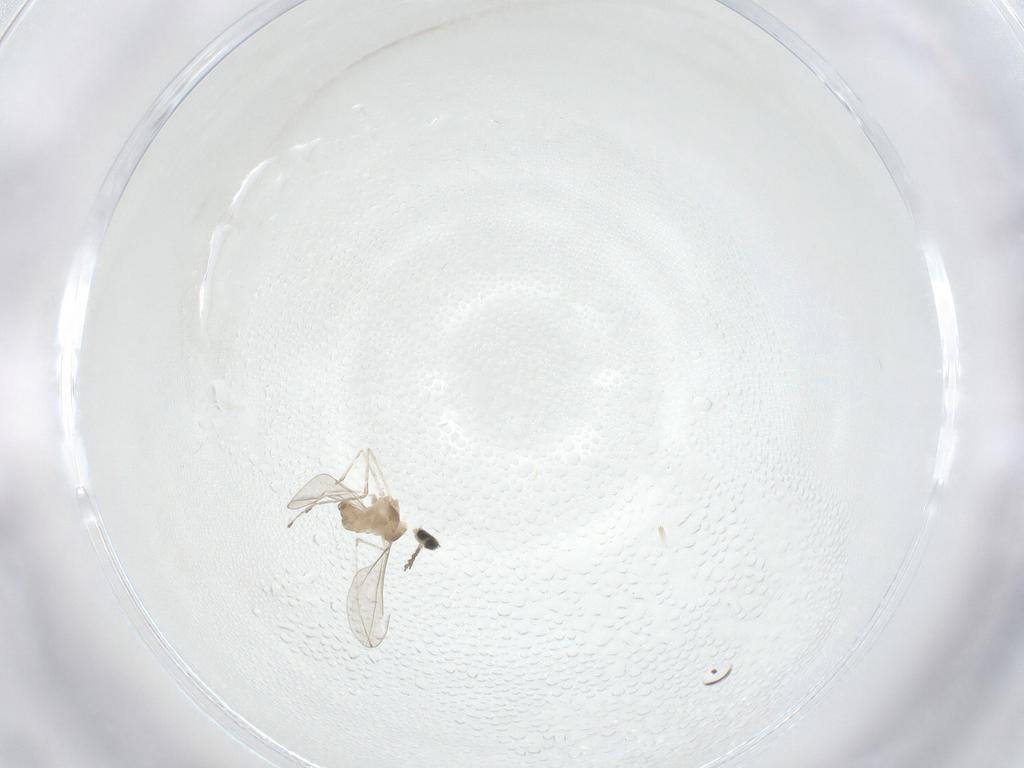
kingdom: Animalia
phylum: Arthropoda
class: Insecta
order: Diptera
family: Cecidomyiidae
